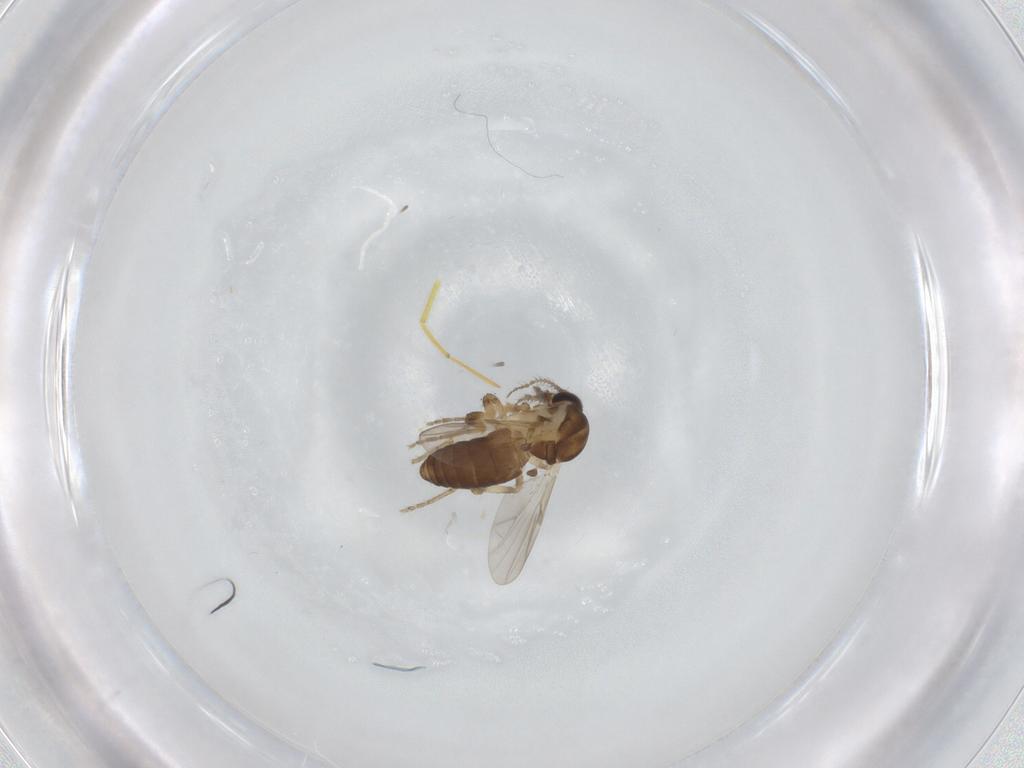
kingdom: Animalia
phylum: Arthropoda
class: Insecta
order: Diptera
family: Ceratopogonidae
